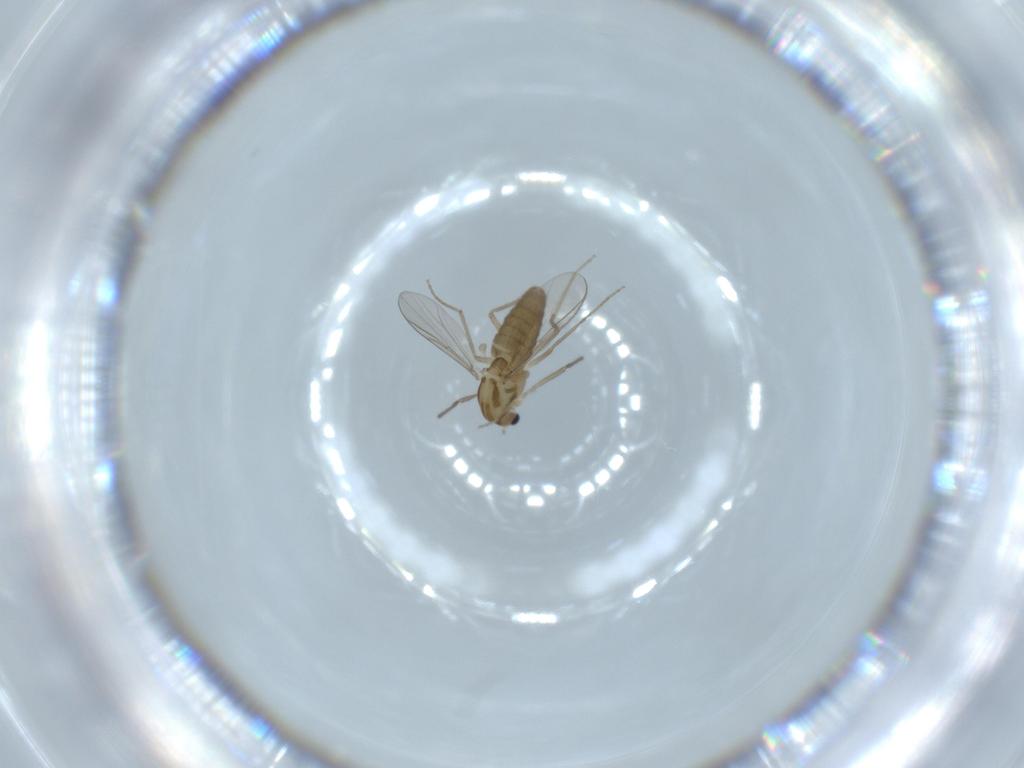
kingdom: Animalia
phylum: Arthropoda
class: Insecta
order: Diptera
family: Chironomidae
